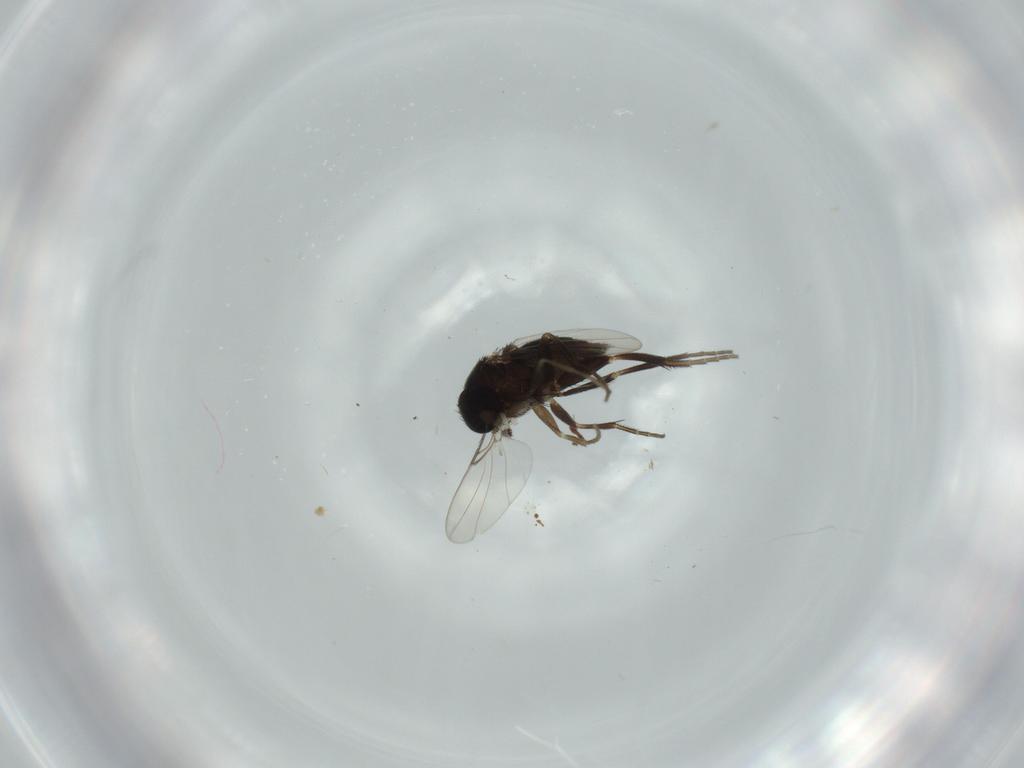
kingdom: Animalia
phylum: Arthropoda
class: Insecta
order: Diptera
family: Phoridae
